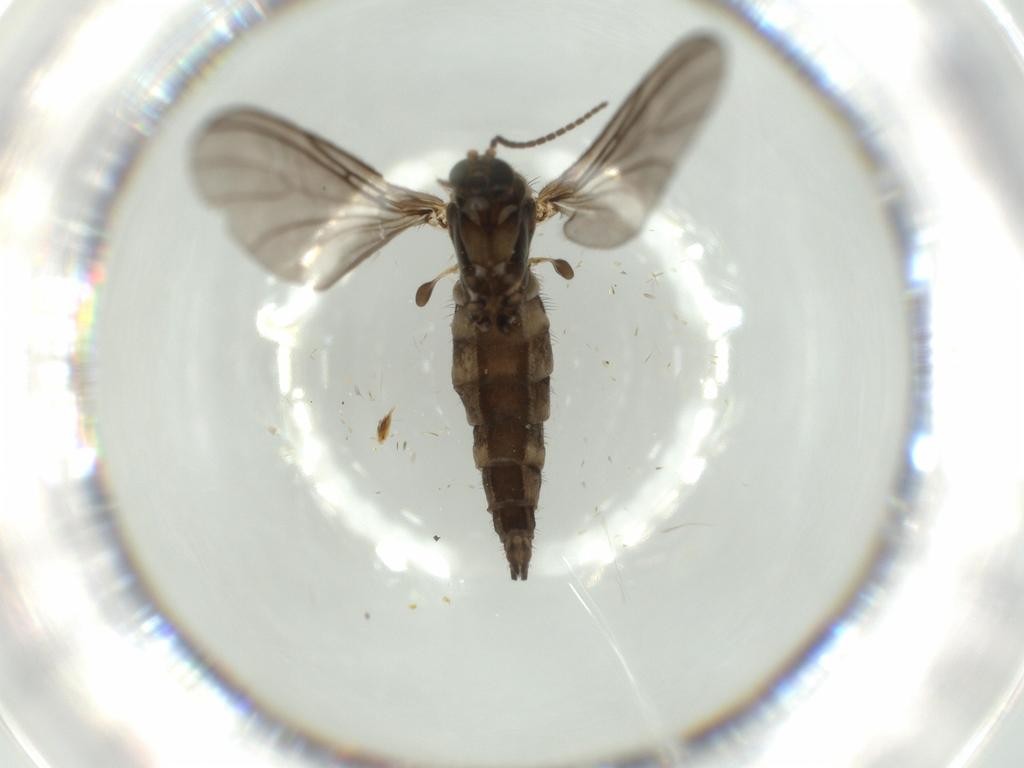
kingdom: Animalia
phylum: Arthropoda
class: Insecta
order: Diptera
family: Sciaridae
